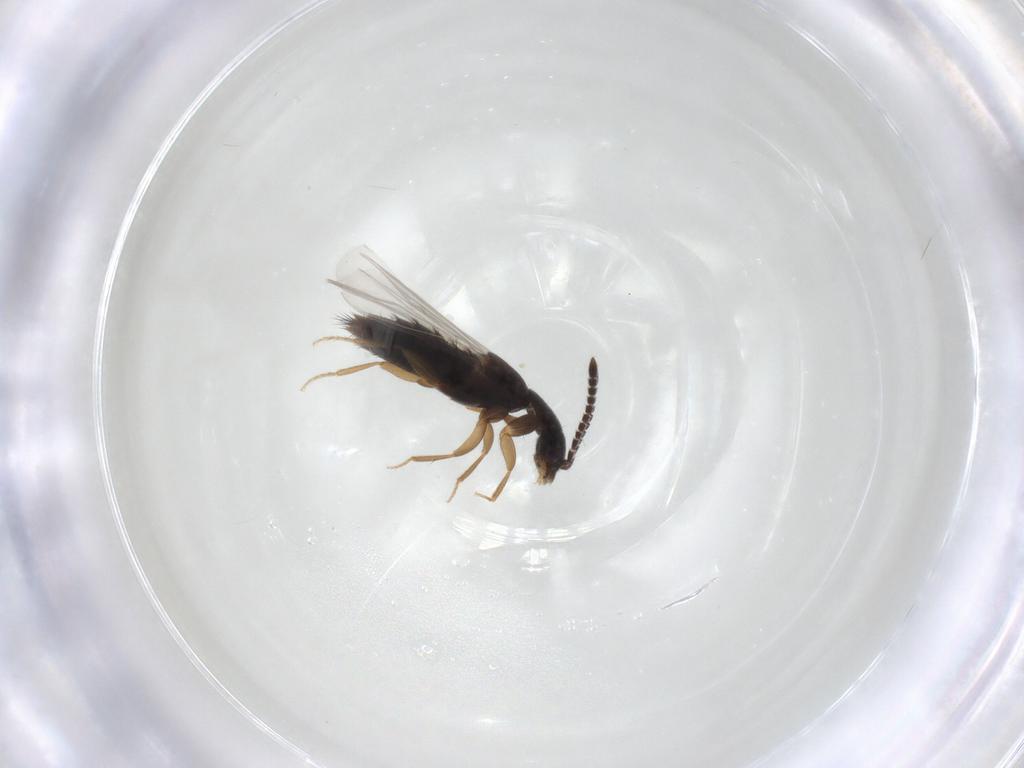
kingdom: Animalia
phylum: Arthropoda
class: Insecta
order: Coleoptera
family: Staphylinidae
